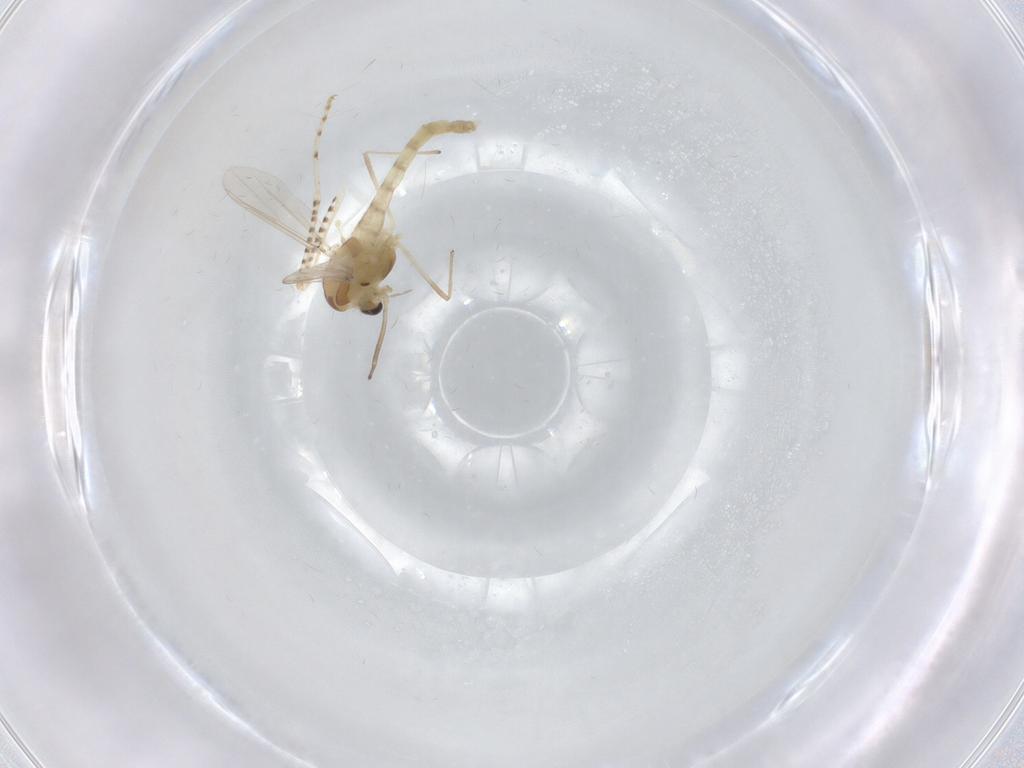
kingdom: Animalia
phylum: Arthropoda
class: Insecta
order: Diptera
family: Chironomidae
